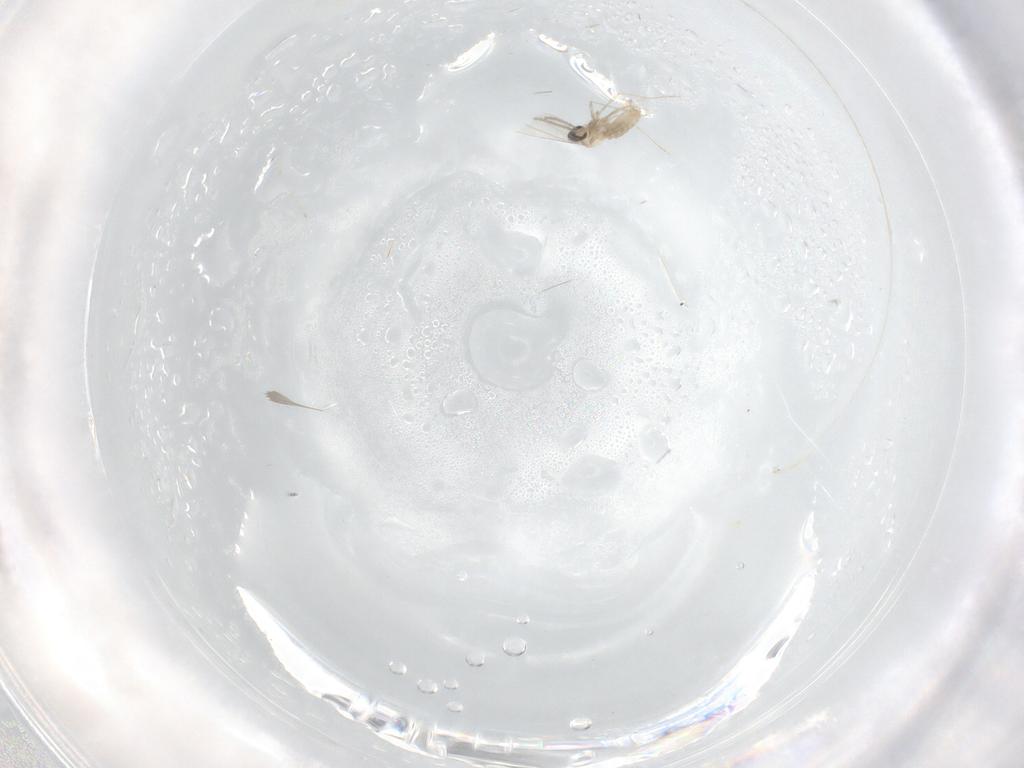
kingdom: Animalia
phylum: Arthropoda
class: Insecta
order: Diptera
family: Cecidomyiidae
